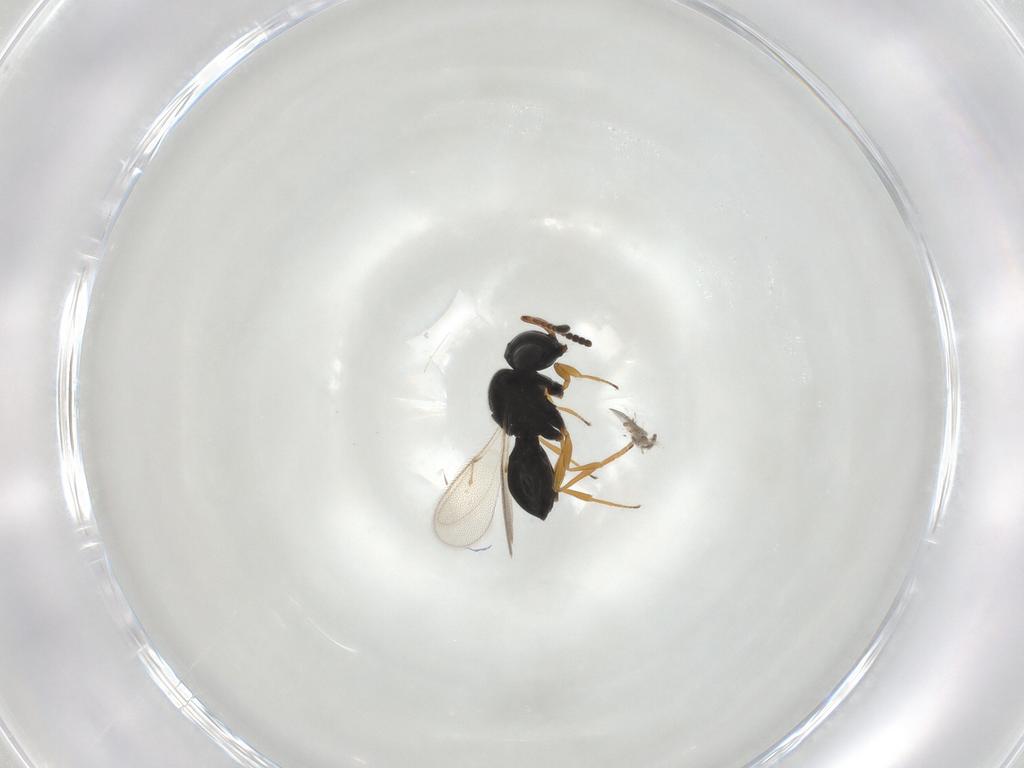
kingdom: Animalia
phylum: Arthropoda
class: Insecta
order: Hymenoptera
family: Scelionidae
